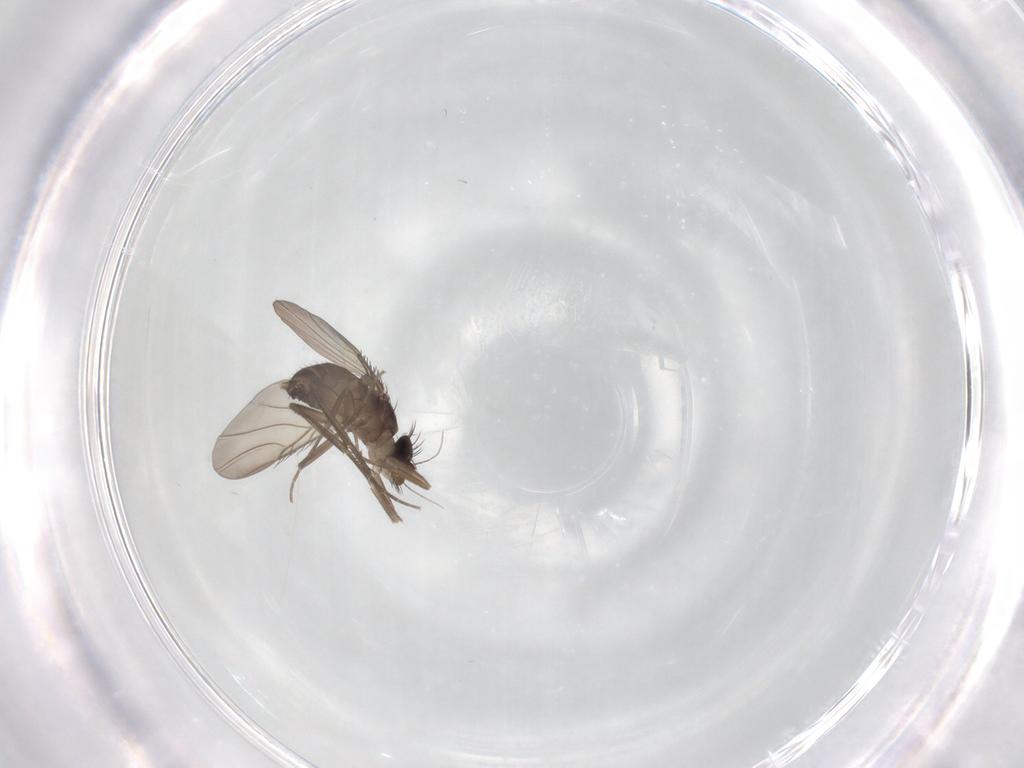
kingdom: Animalia
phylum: Arthropoda
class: Insecta
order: Diptera
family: Phoridae
